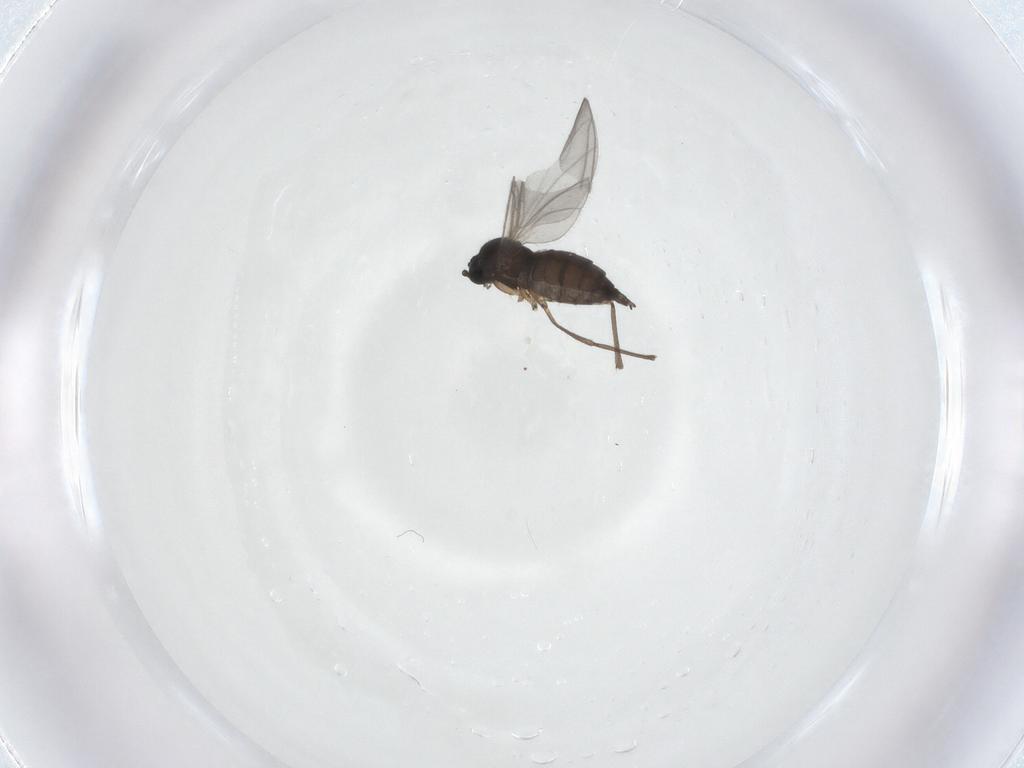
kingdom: Animalia
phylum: Arthropoda
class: Insecta
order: Diptera
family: Sciaridae
